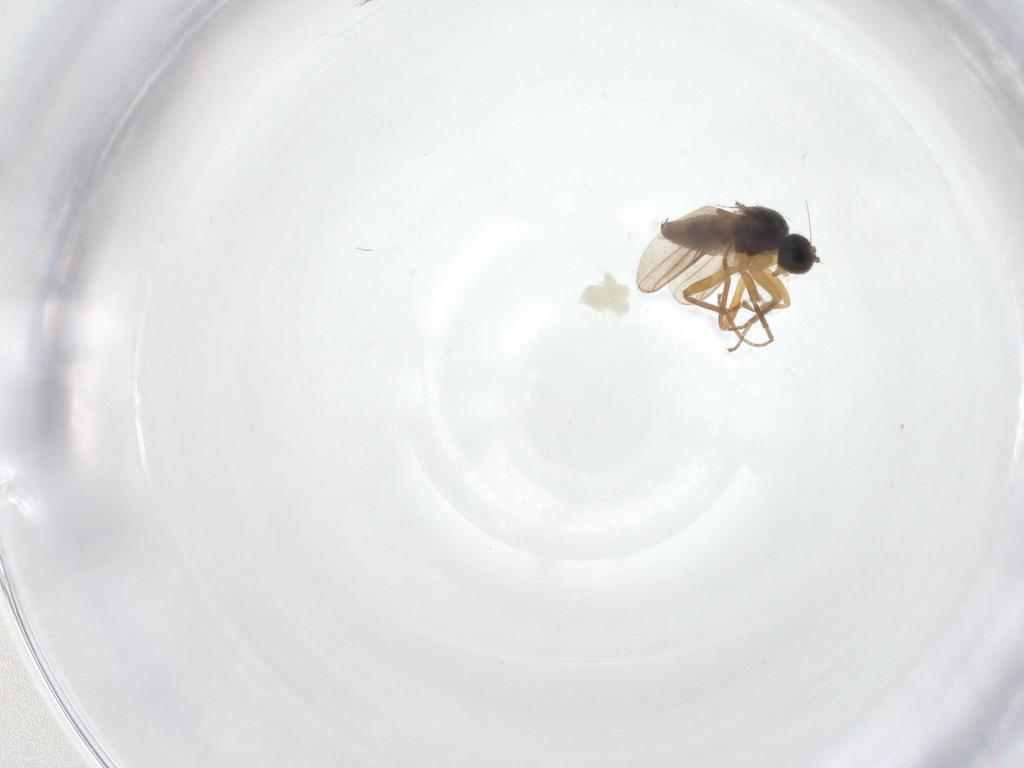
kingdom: Animalia
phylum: Arthropoda
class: Insecta
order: Diptera
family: Hybotidae
